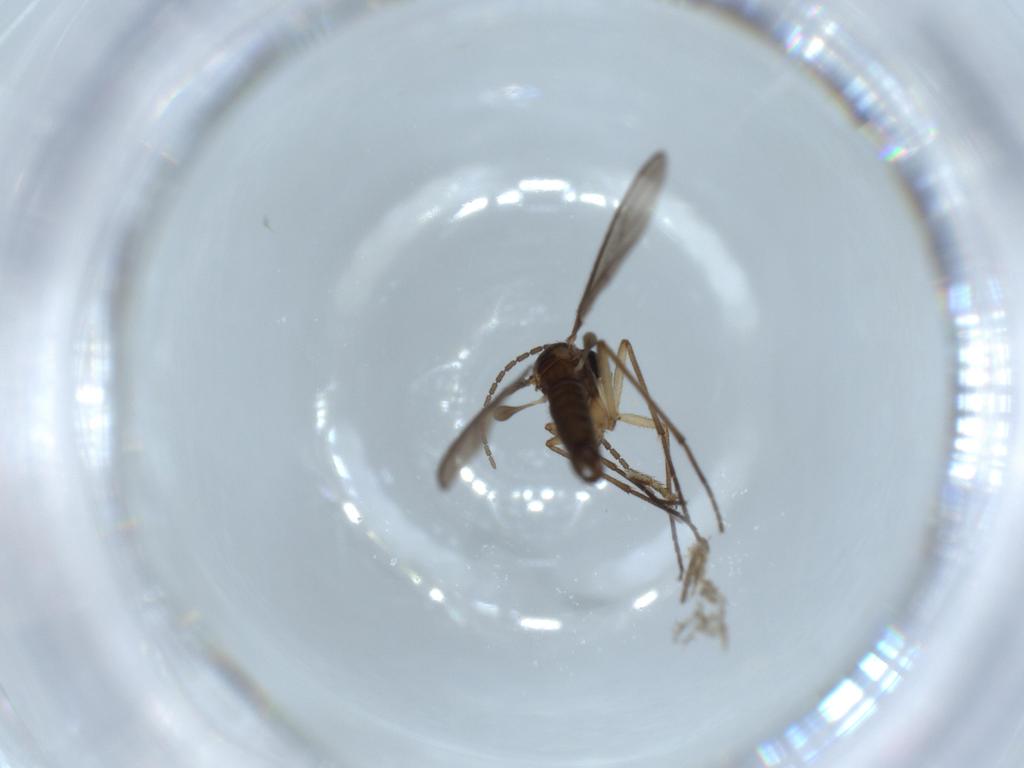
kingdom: Animalia
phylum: Arthropoda
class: Insecta
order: Diptera
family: Sciaridae
